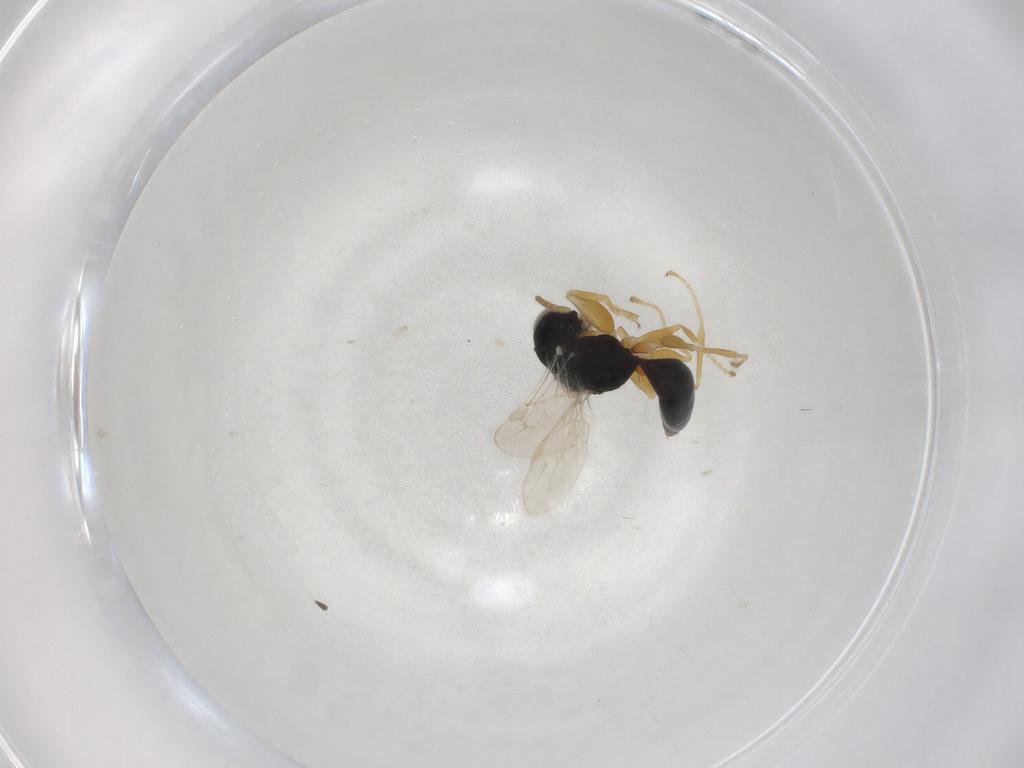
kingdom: Animalia
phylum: Arthropoda
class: Insecta
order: Hymenoptera
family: Dryinidae
